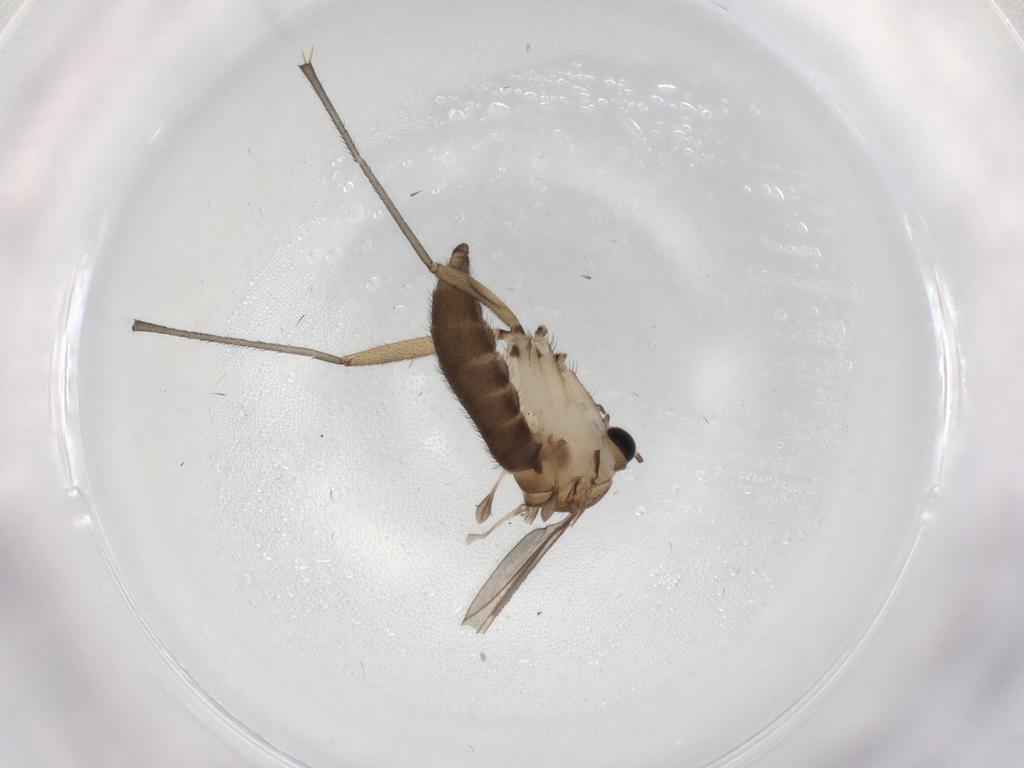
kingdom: Animalia
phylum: Arthropoda
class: Insecta
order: Diptera
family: Sciaridae
